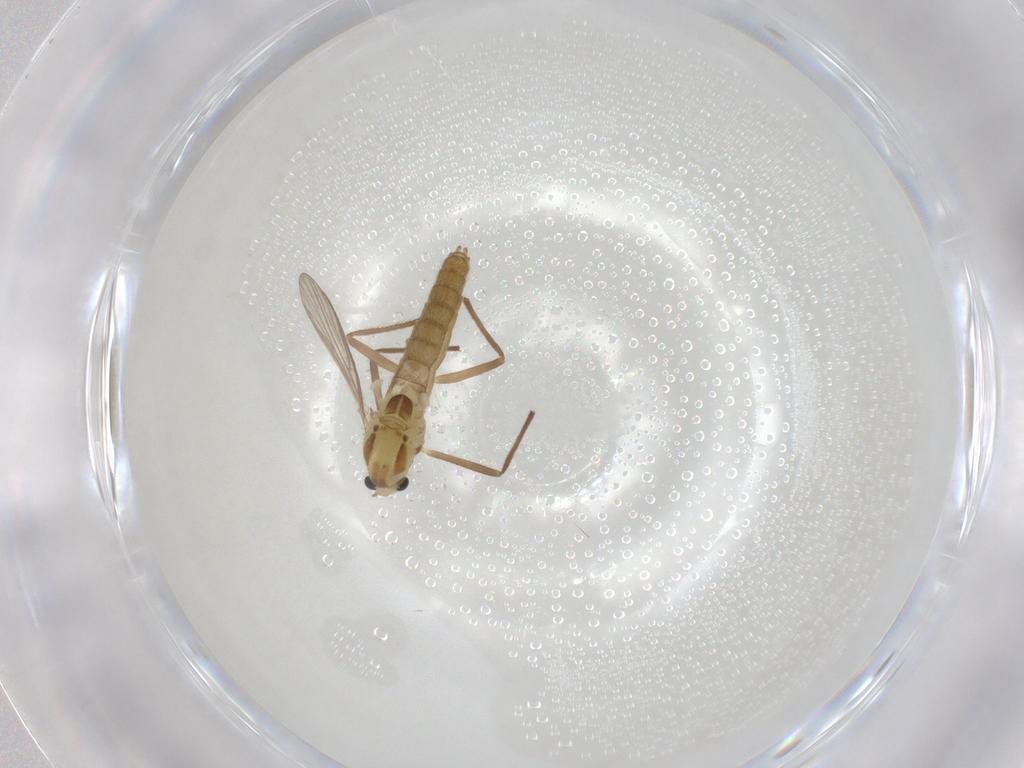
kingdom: Animalia
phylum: Arthropoda
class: Insecta
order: Diptera
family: Chironomidae
